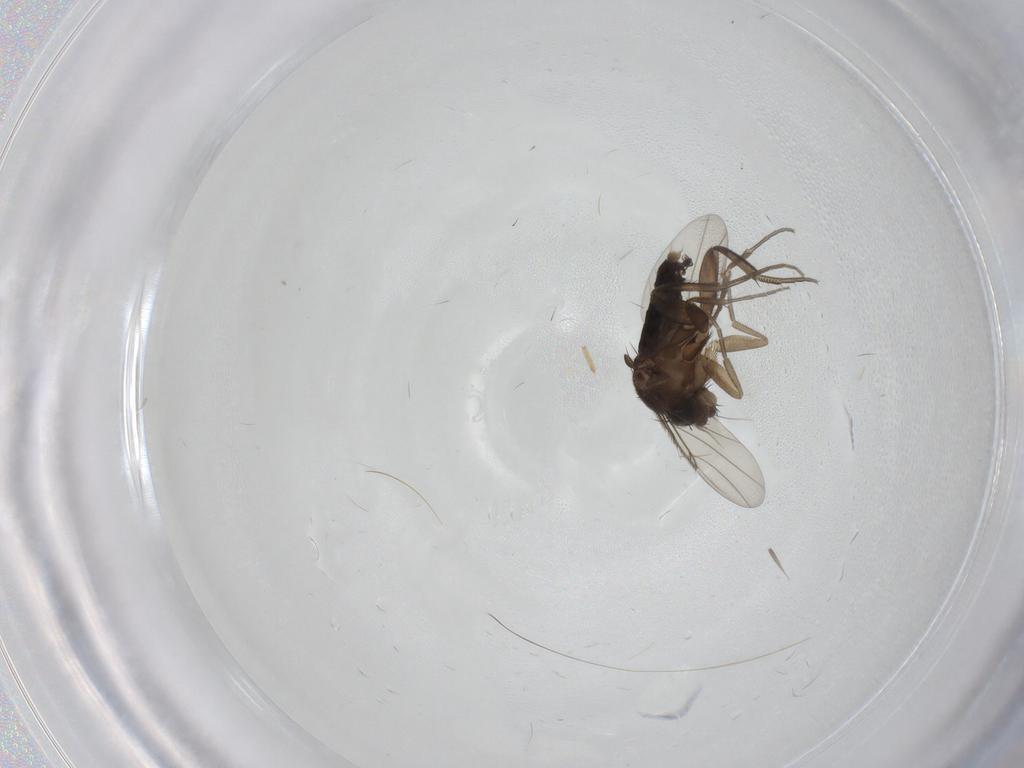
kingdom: Animalia
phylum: Arthropoda
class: Insecta
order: Diptera
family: Phoridae
